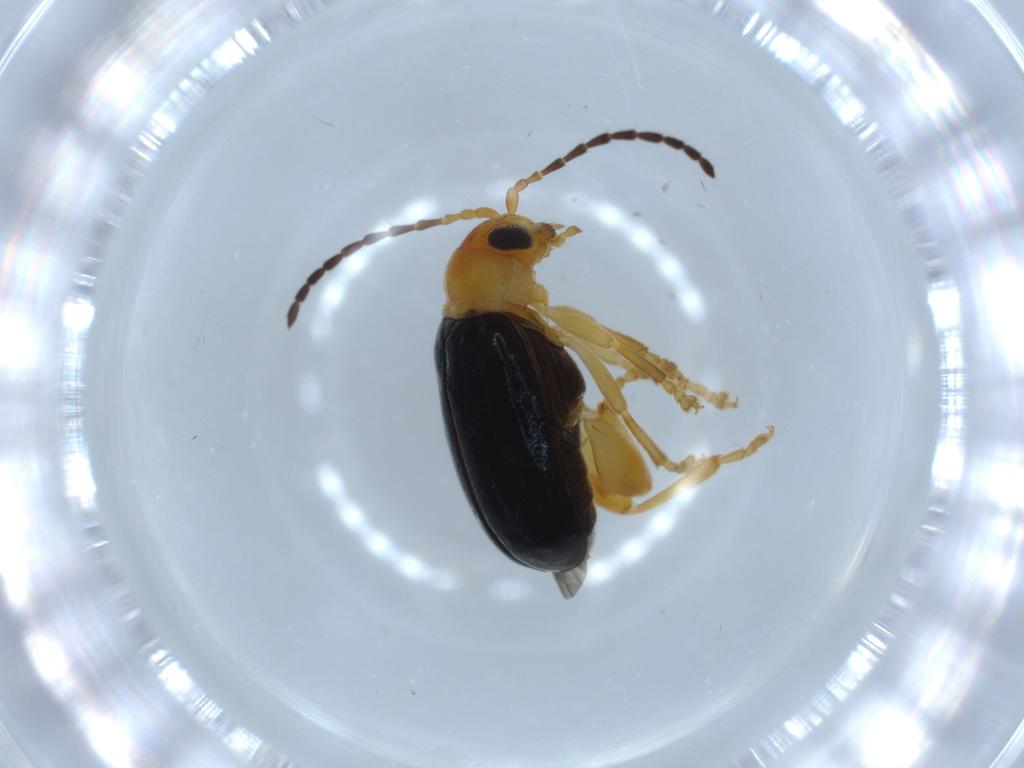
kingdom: Animalia
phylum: Arthropoda
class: Insecta
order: Coleoptera
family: Chrysomelidae
